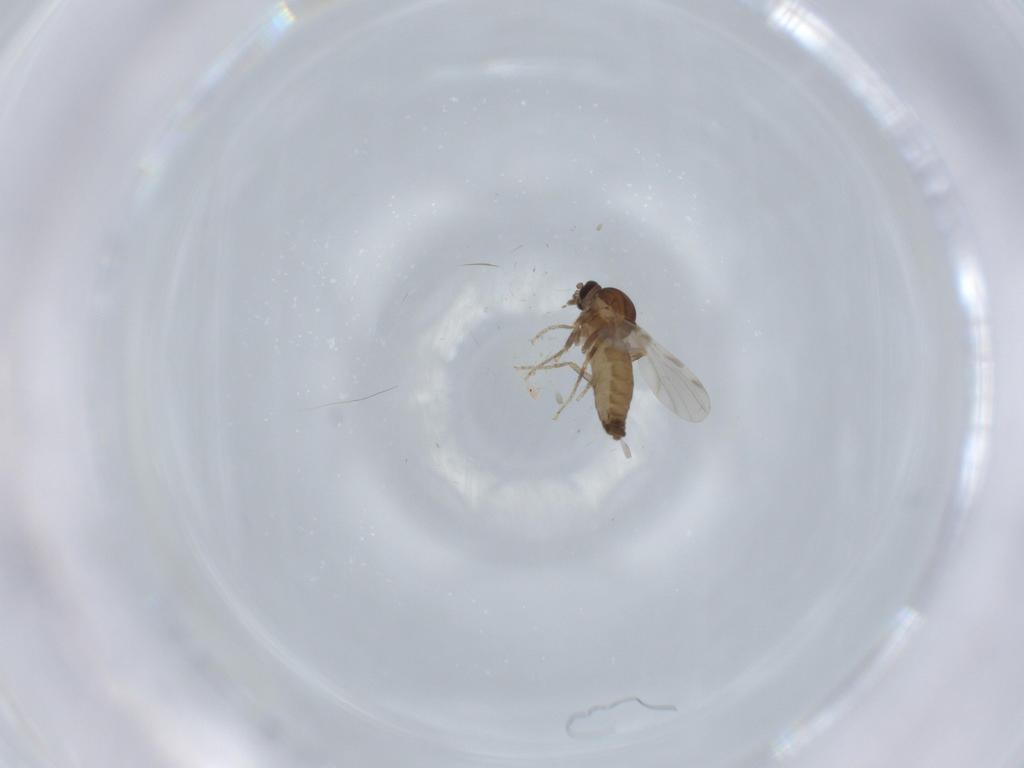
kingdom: Animalia
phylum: Arthropoda
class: Insecta
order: Diptera
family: Ceratopogonidae
